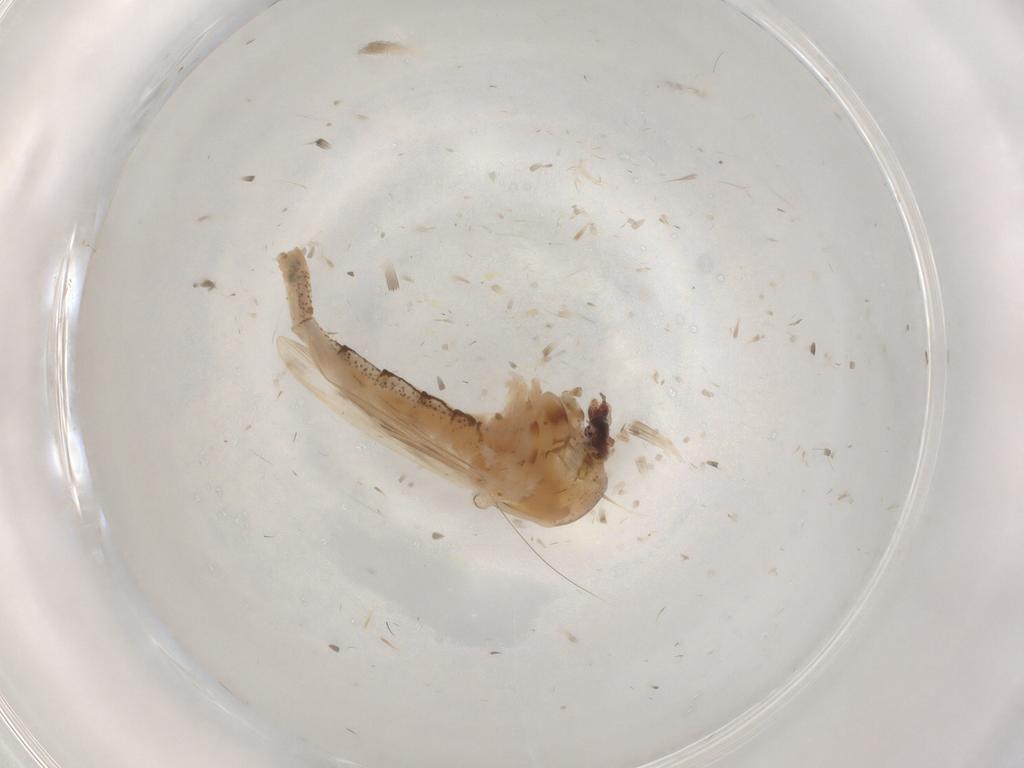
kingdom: Animalia
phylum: Arthropoda
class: Insecta
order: Diptera
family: Chaoboridae
